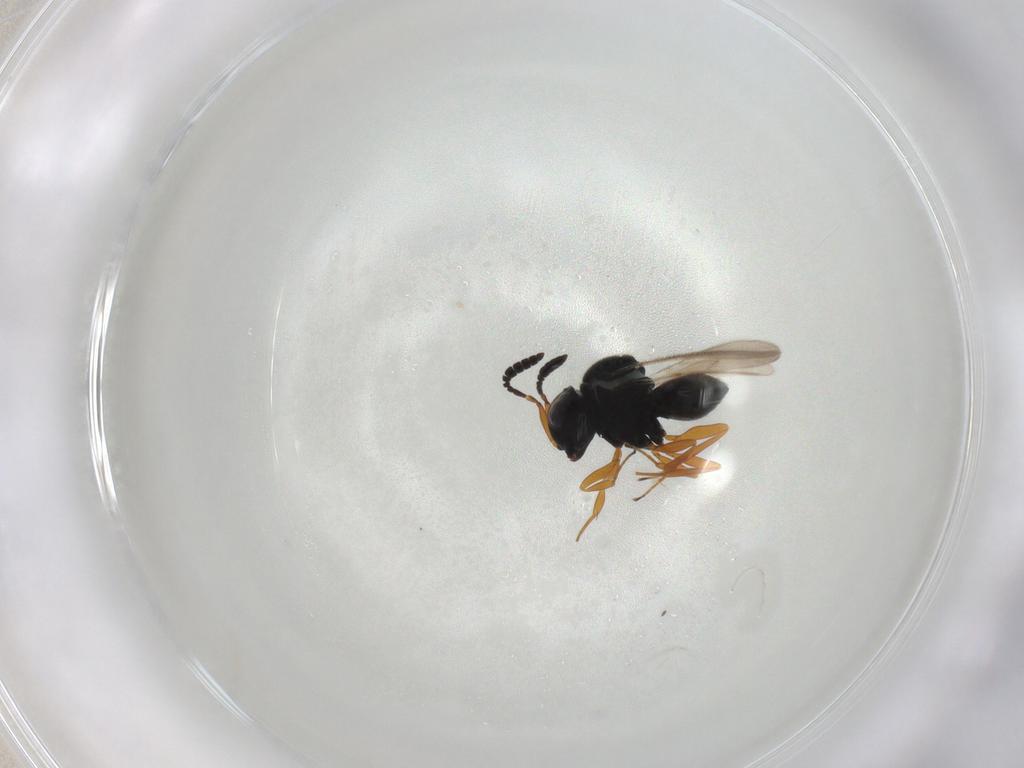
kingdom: Animalia
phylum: Arthropoda
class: Insecta
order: Hymenoptera
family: Scelionidae
